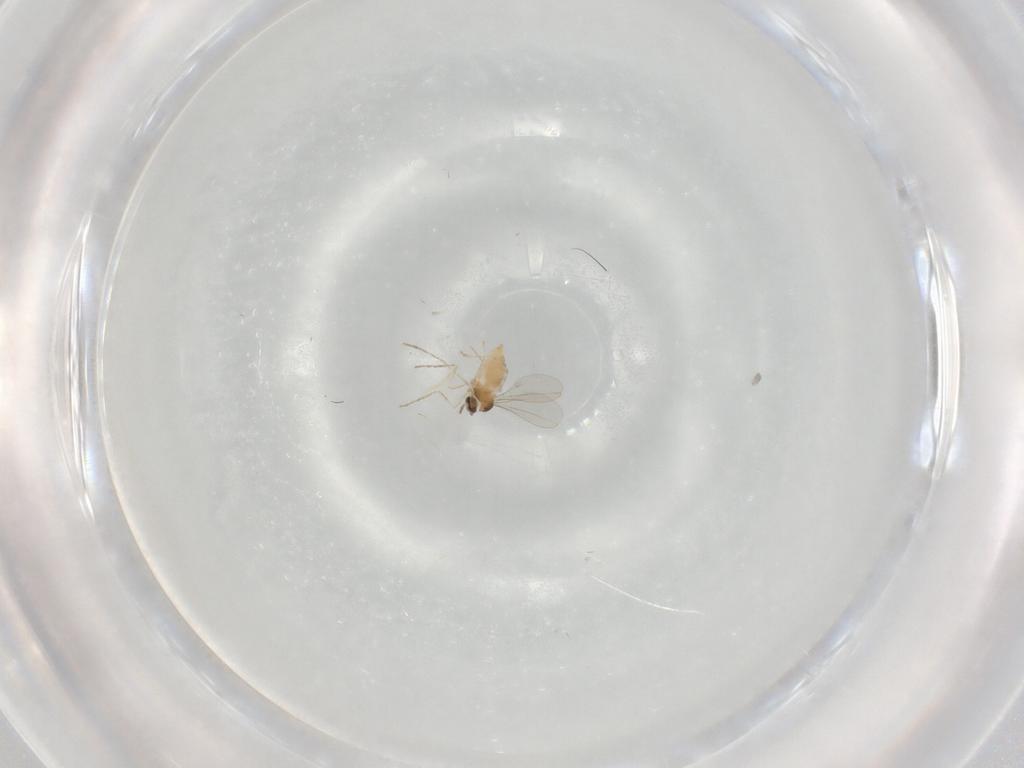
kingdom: Animalia
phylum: Arthropoda
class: Insecta
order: Diptera
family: Cecidomyiidae
